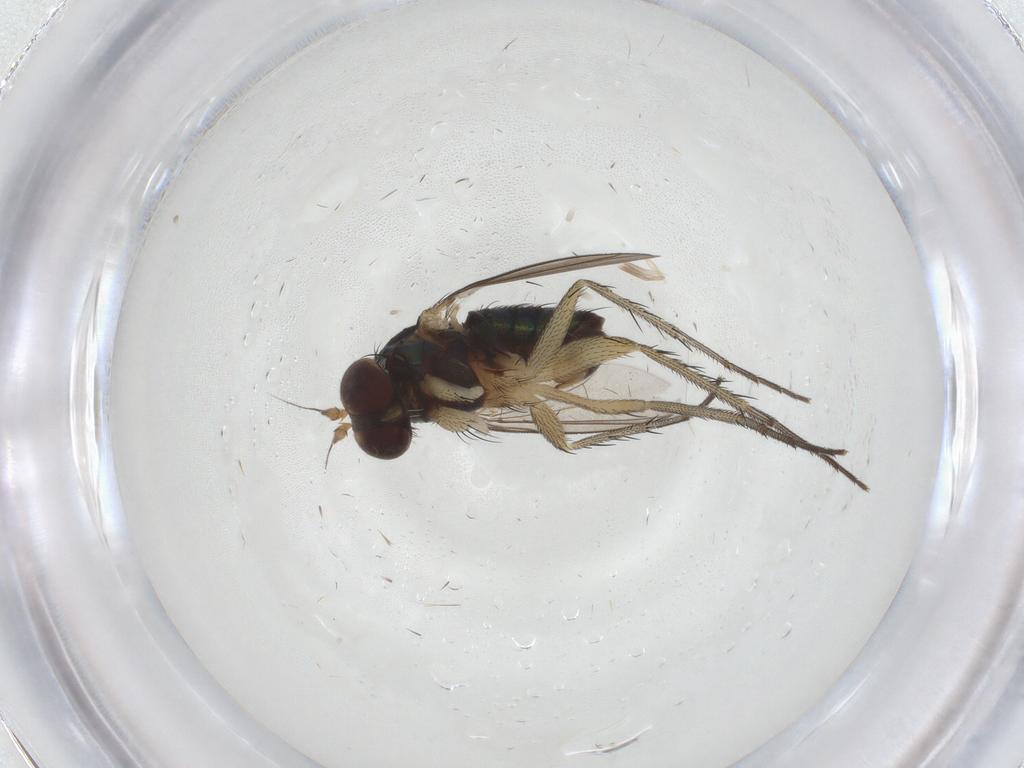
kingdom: Animalia
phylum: Arthropoda
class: Insecta
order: Diptera
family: Dolichopodidae
